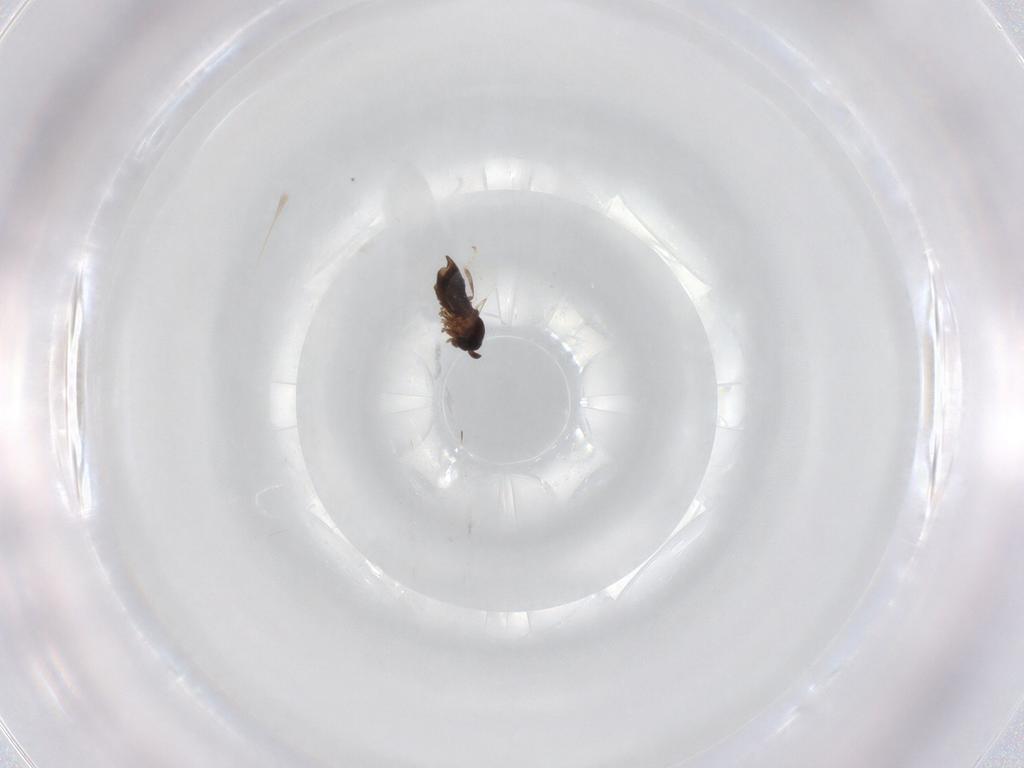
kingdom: Animalia
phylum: Arthropoda
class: Insecta
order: Diptera
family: Scatopsidae
